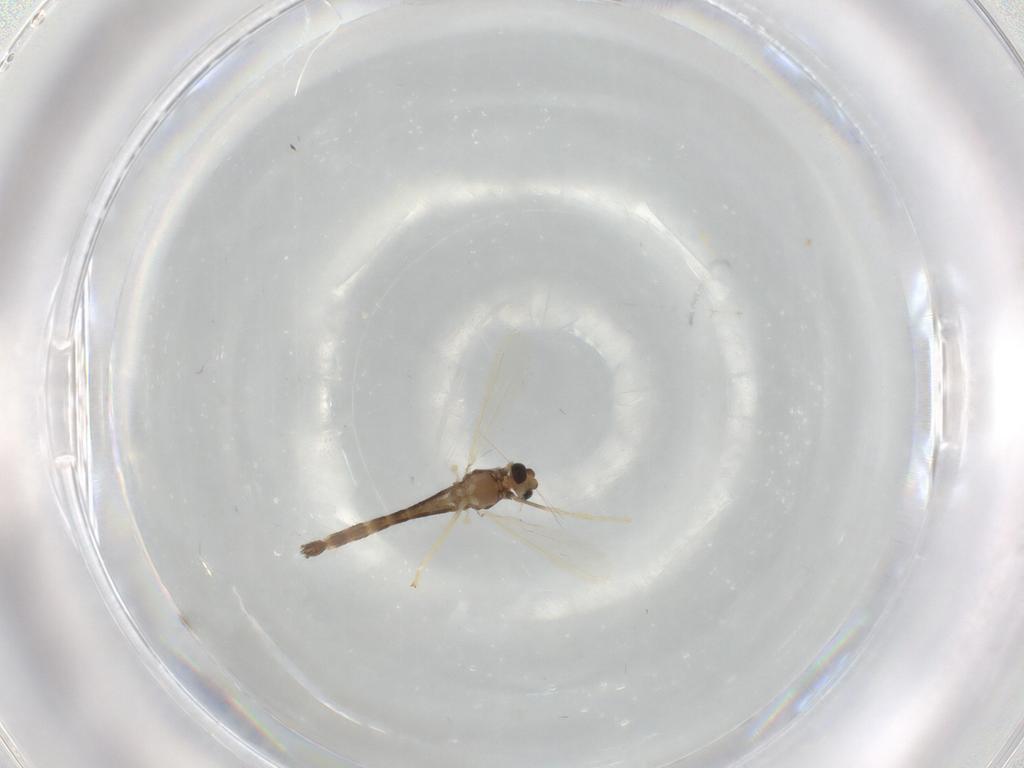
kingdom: Animalia
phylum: Arthropoda
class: Insecta
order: Diptera
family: Chironomidae
